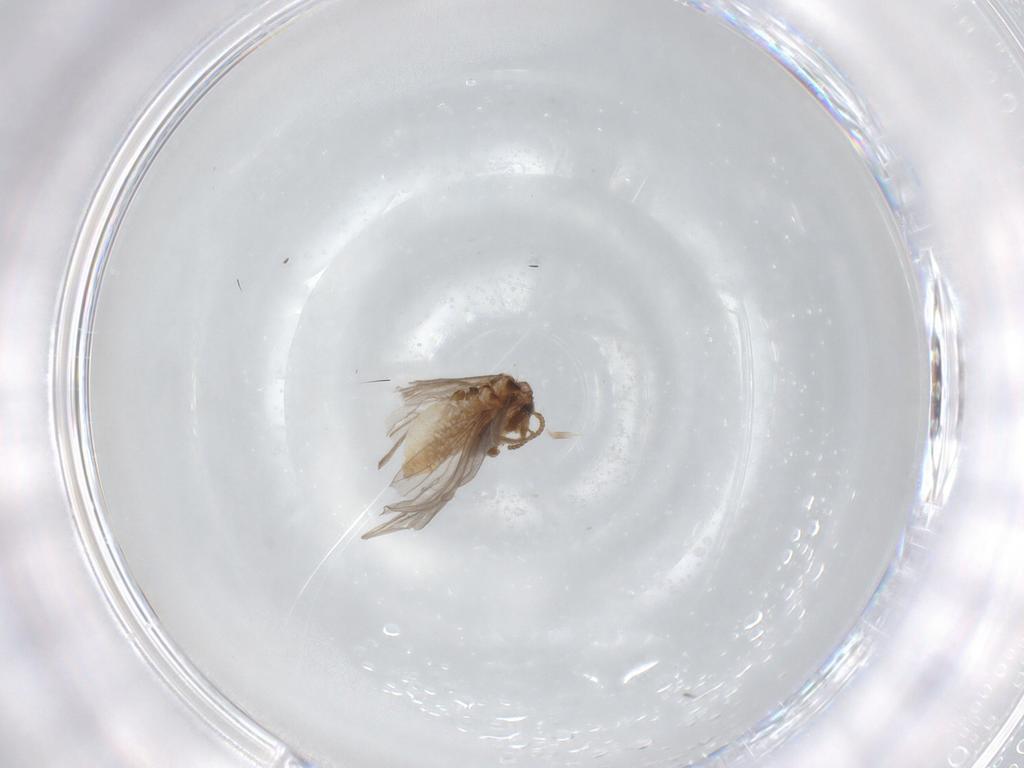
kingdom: Animalia
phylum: Arthropoda
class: Insecta
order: Neuroptera
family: Coniopterygidae
